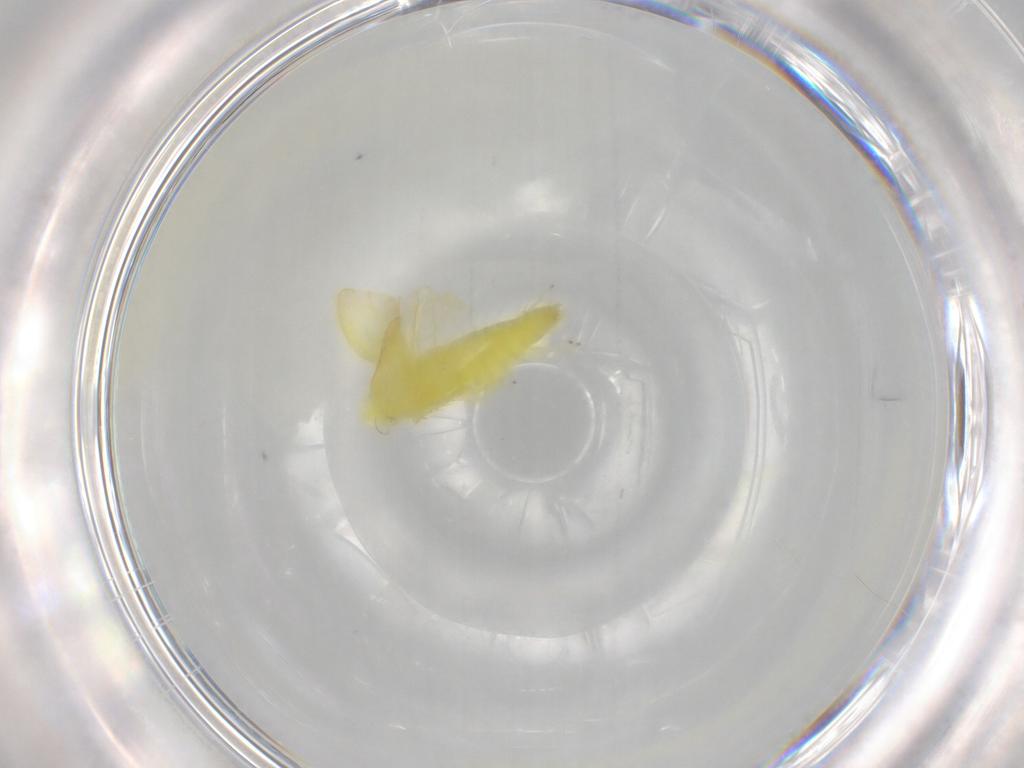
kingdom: Animalia
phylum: Arthropoda
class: Insecta
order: Hemiptera
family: Cicadellidae
